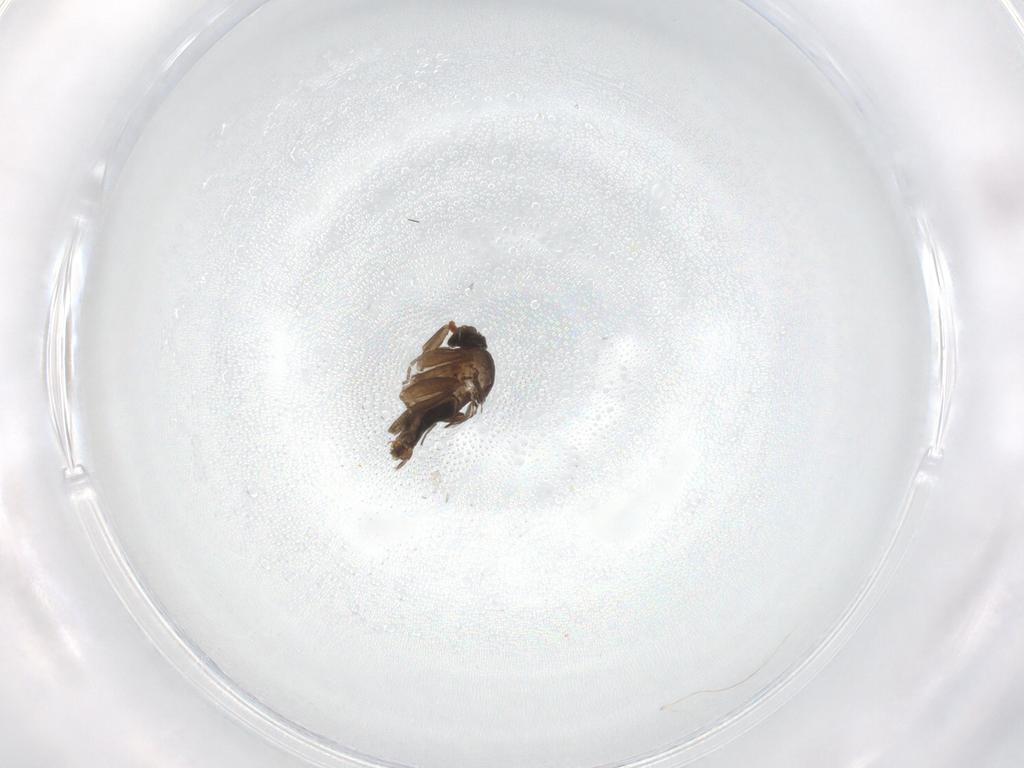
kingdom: Animalia
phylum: Arthropoda
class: Insecta
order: Diptera
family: Phoridae
